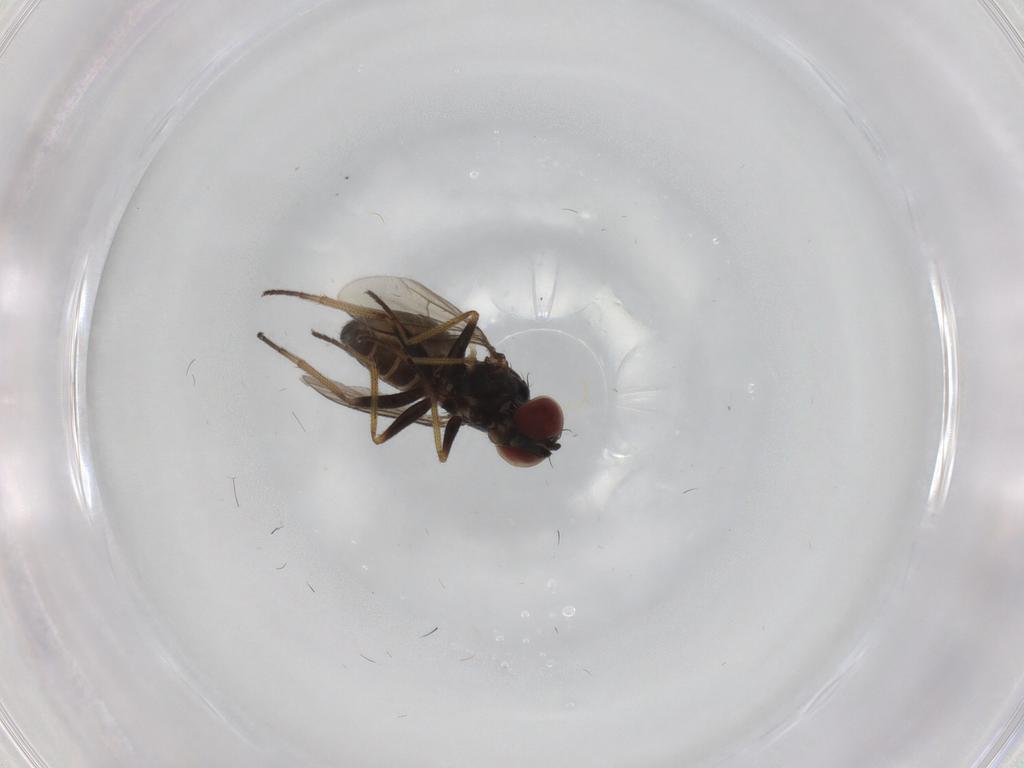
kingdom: Animalia
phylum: Arthropoda
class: Insecta
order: Diptera
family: Dolichopodidae
